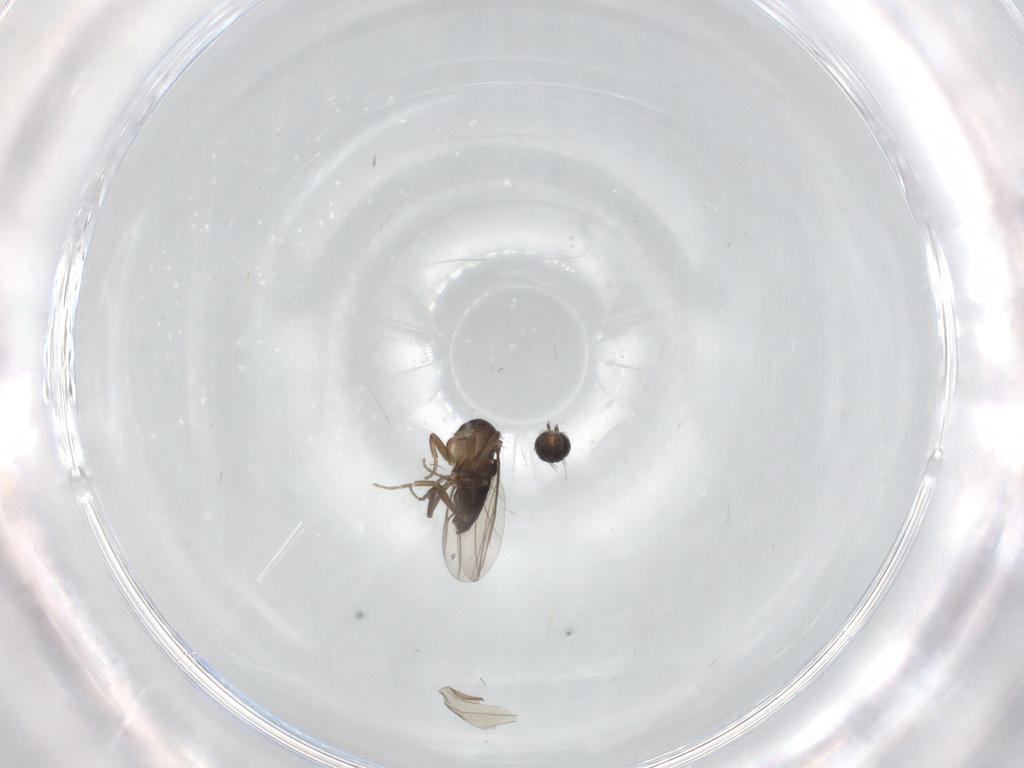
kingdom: Animalia
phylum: Arthropoda
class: Insecta
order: Diptera
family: Phoridae
